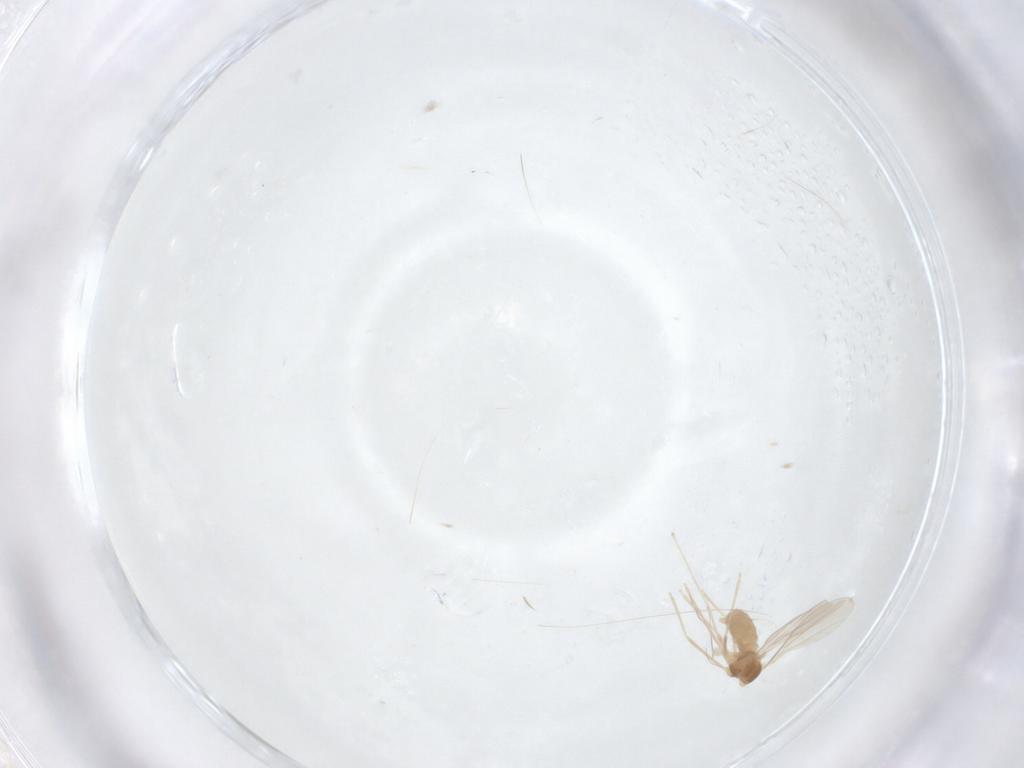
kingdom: Animalia
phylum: Arthropoda
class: Insecta
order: Diptera
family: Cecidomyiidae
